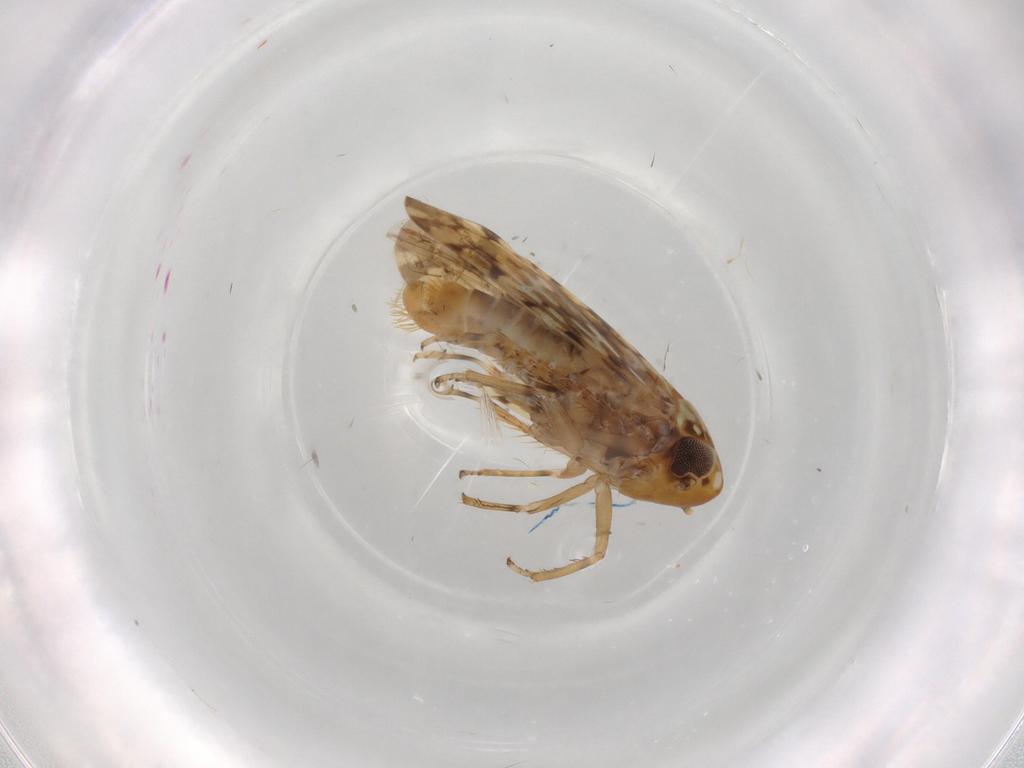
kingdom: Animalia
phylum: Arthropoda
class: Insecta
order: Hemiptera
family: Cicadellidae
